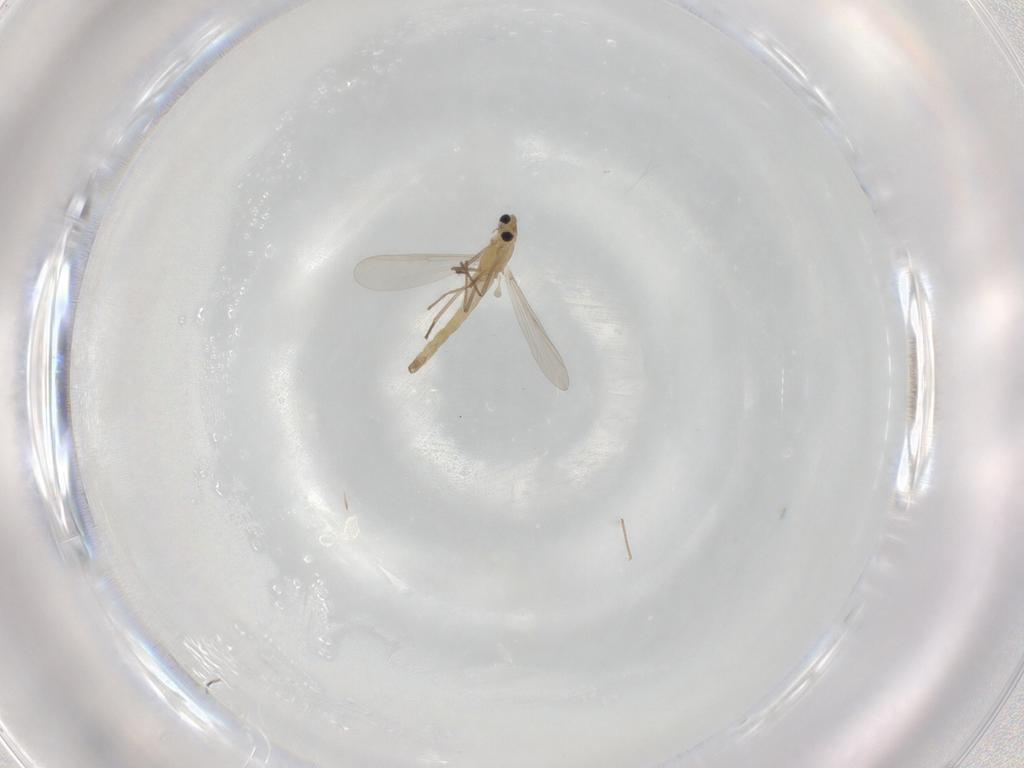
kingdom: Animalia
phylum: Arthropoda
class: Insecta
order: Diptera
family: Chironomidae
